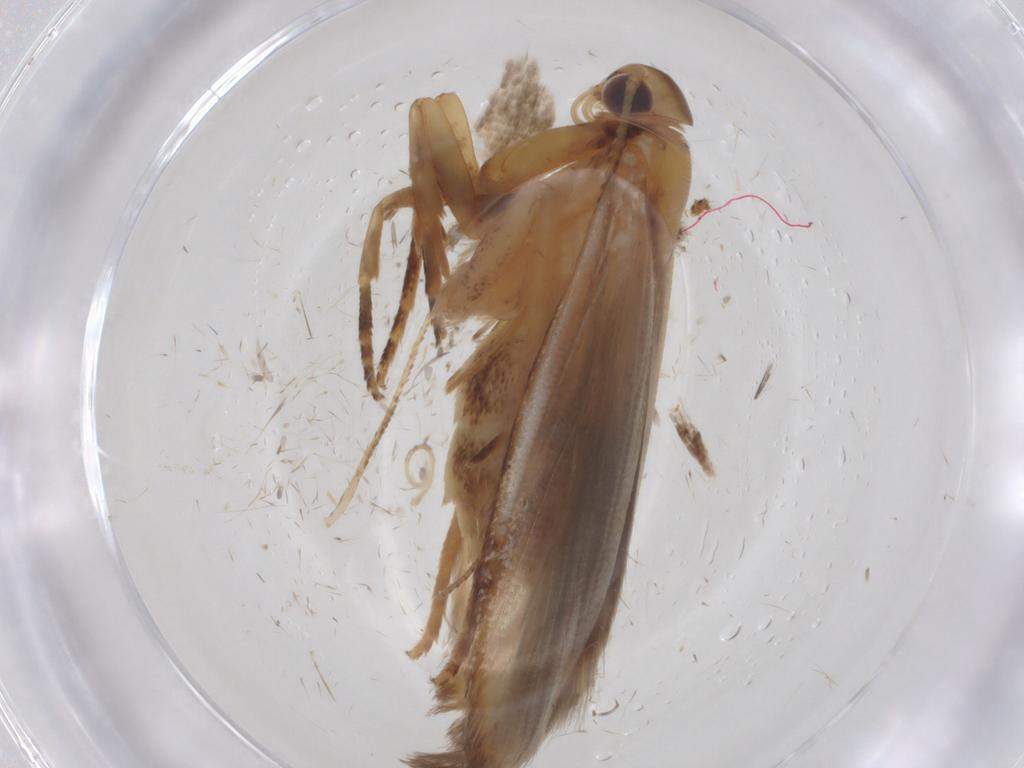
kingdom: Animalia
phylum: Arthropoda
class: Insecta
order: Lepidoptera
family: Gelechiidae
